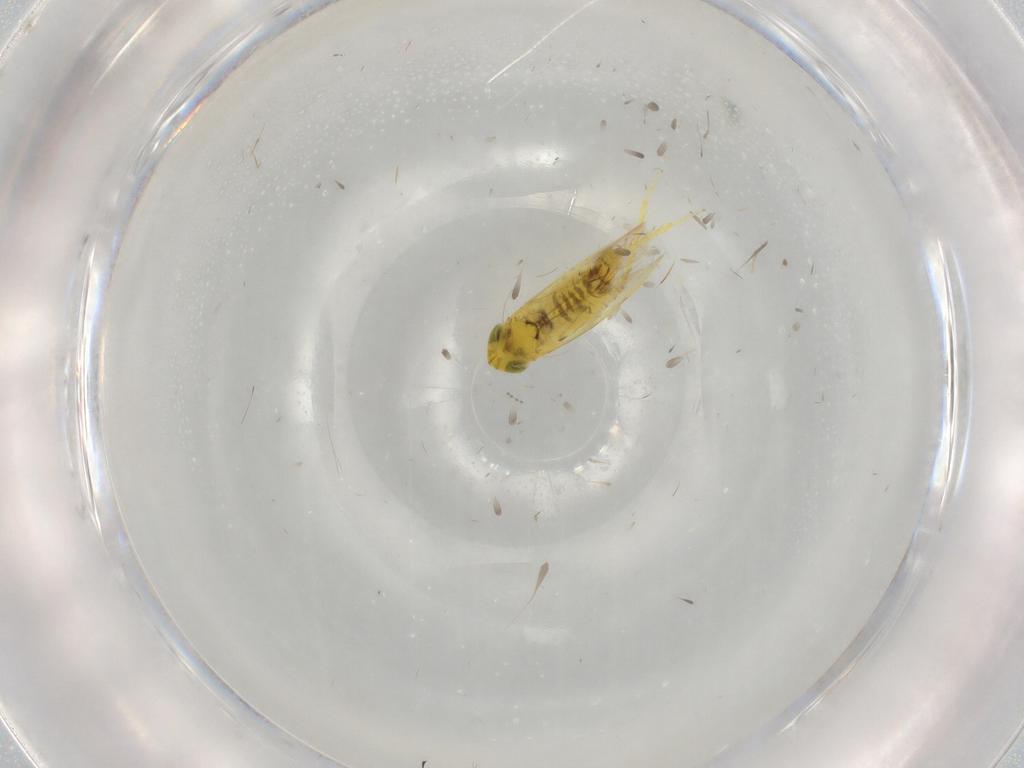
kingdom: Animalia
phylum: Arthropoda
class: Insecta
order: Hemiptera
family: Cicadellidae
